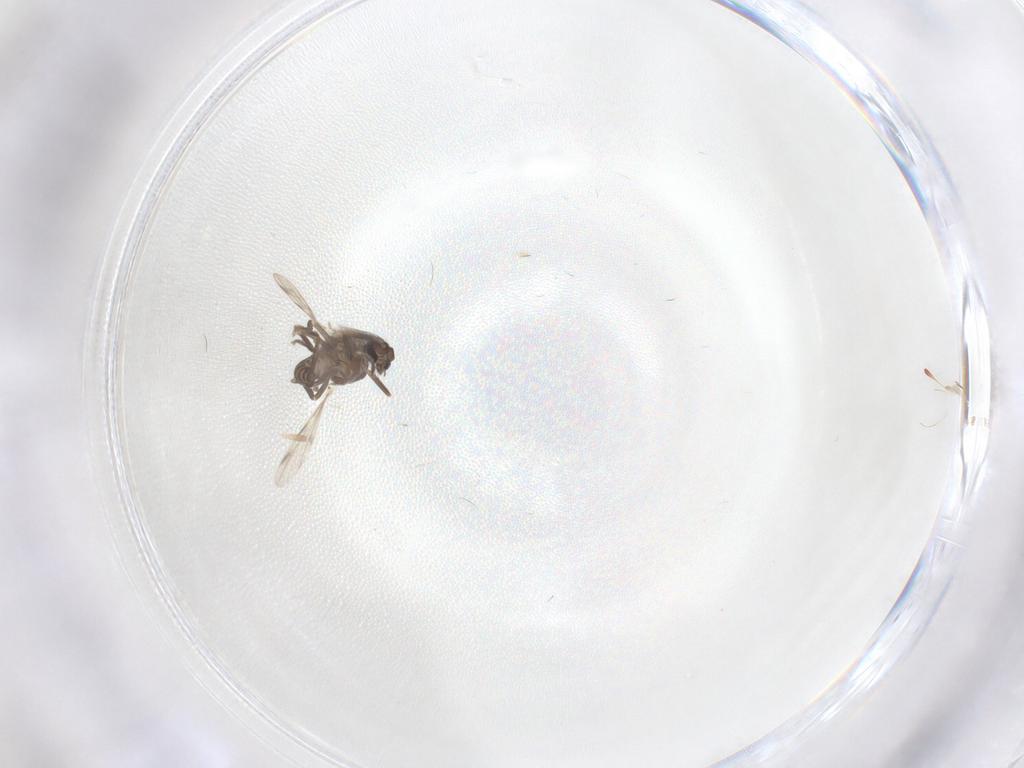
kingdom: Animalia
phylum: Arthropoda
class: Insecta
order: Diptera
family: Ceratopogonidae
